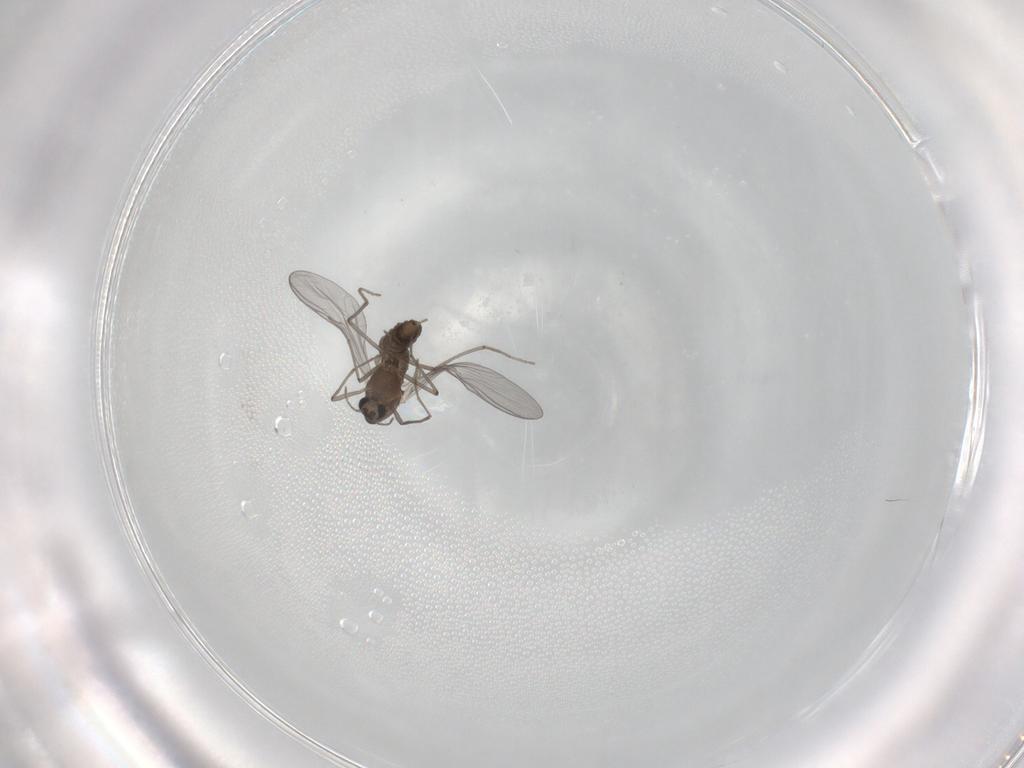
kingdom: Animalia
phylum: Arthropoda
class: Insecta
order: Diptera
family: Chironomidae
